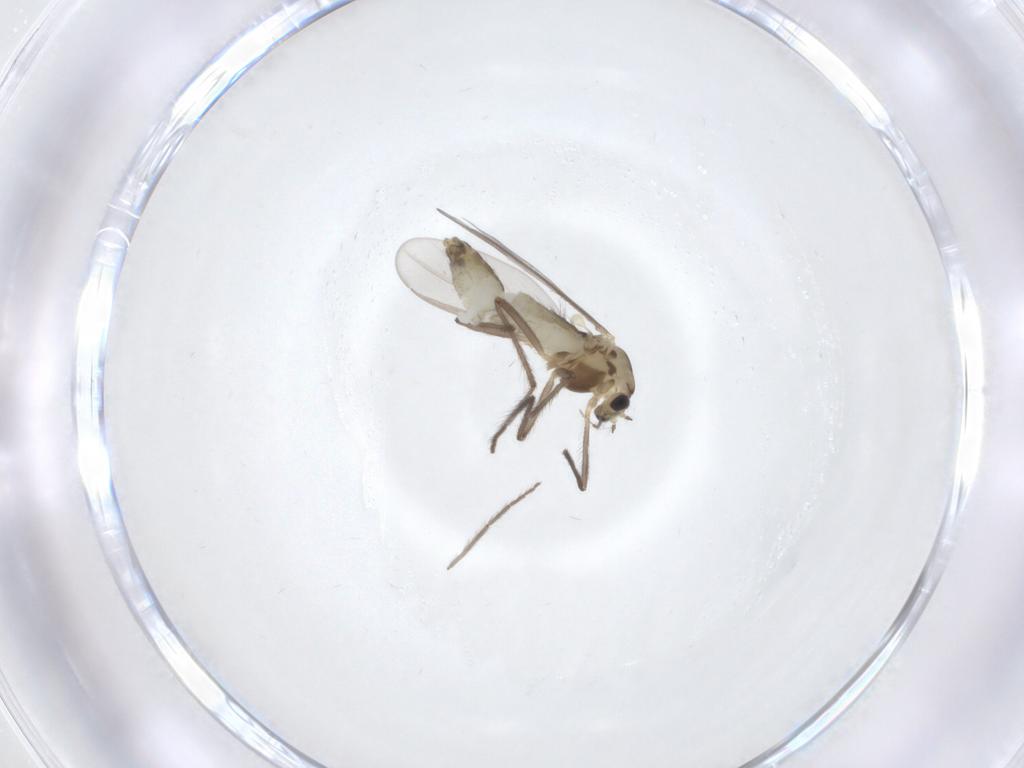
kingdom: Animalia
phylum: Arthropoda
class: Insecta
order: Diptera
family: Chironomidae
